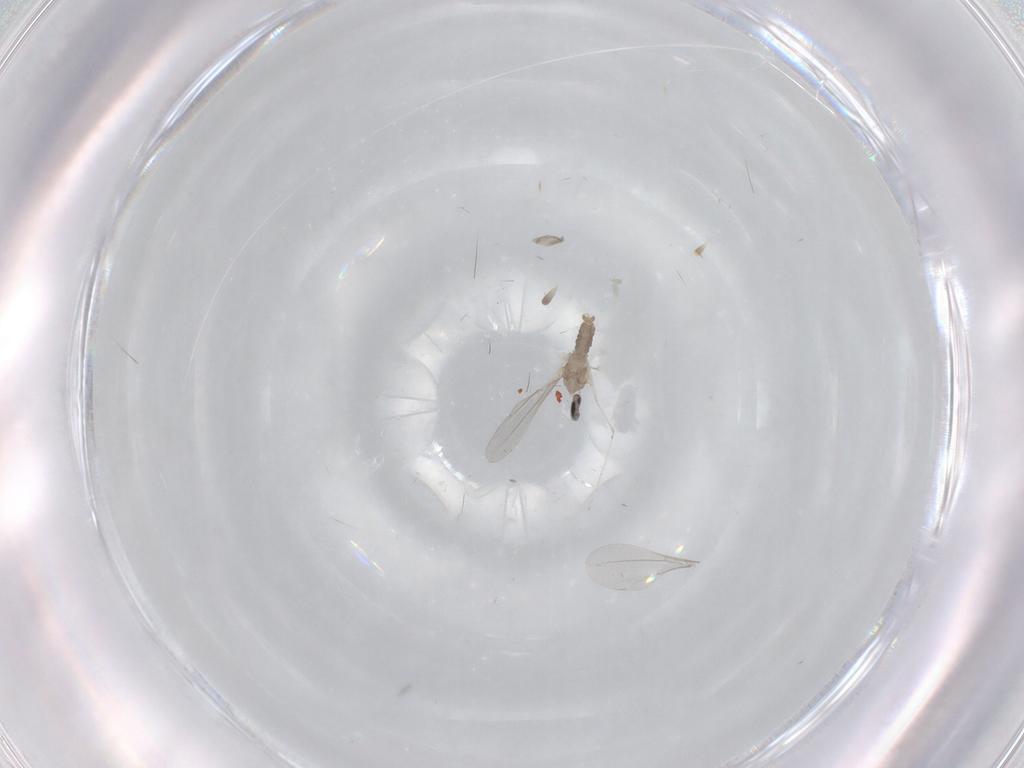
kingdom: Animalia
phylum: Arthropoda
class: Insecta
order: Diptera
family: Cecidomyiidae
